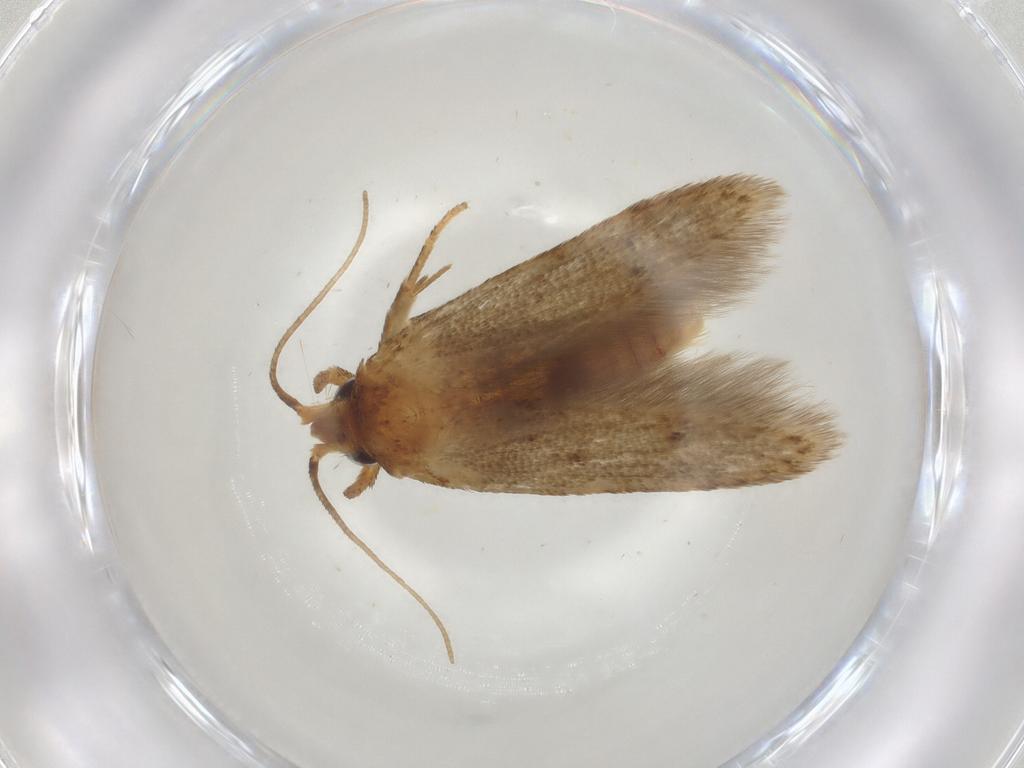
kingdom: Animalia
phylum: Arthropoda
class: Insecta
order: Lepidoptera
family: Blastobasidae
